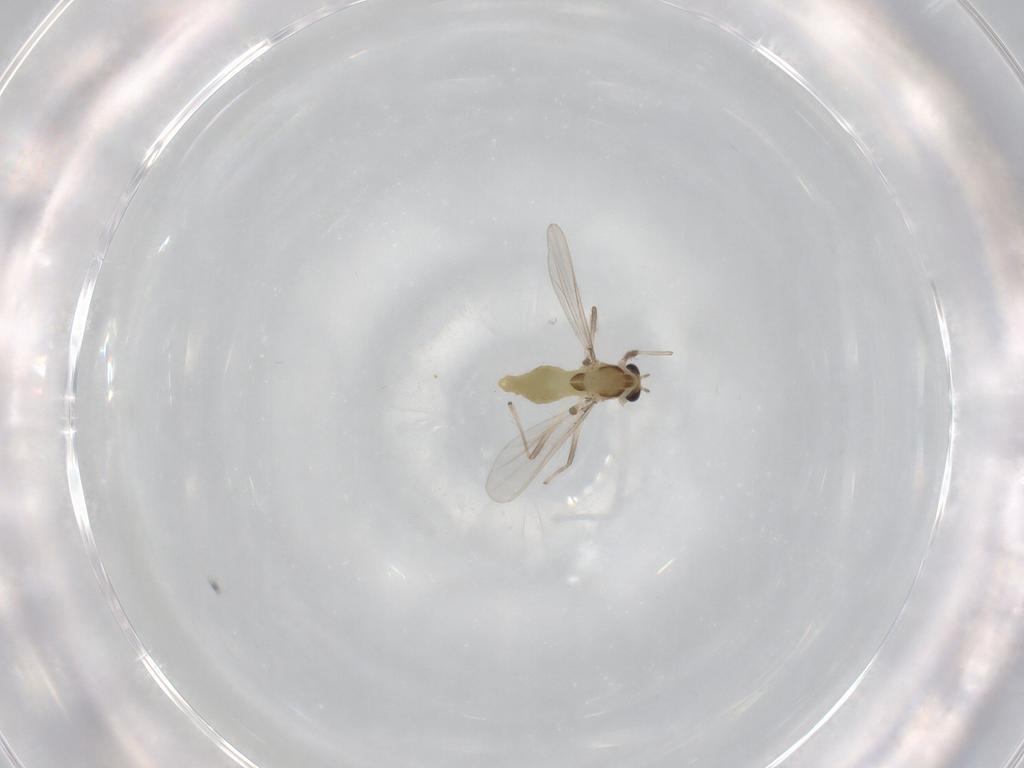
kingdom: Animalia
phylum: Arthropoda
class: Insecta
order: Diptera
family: Chironomidae
